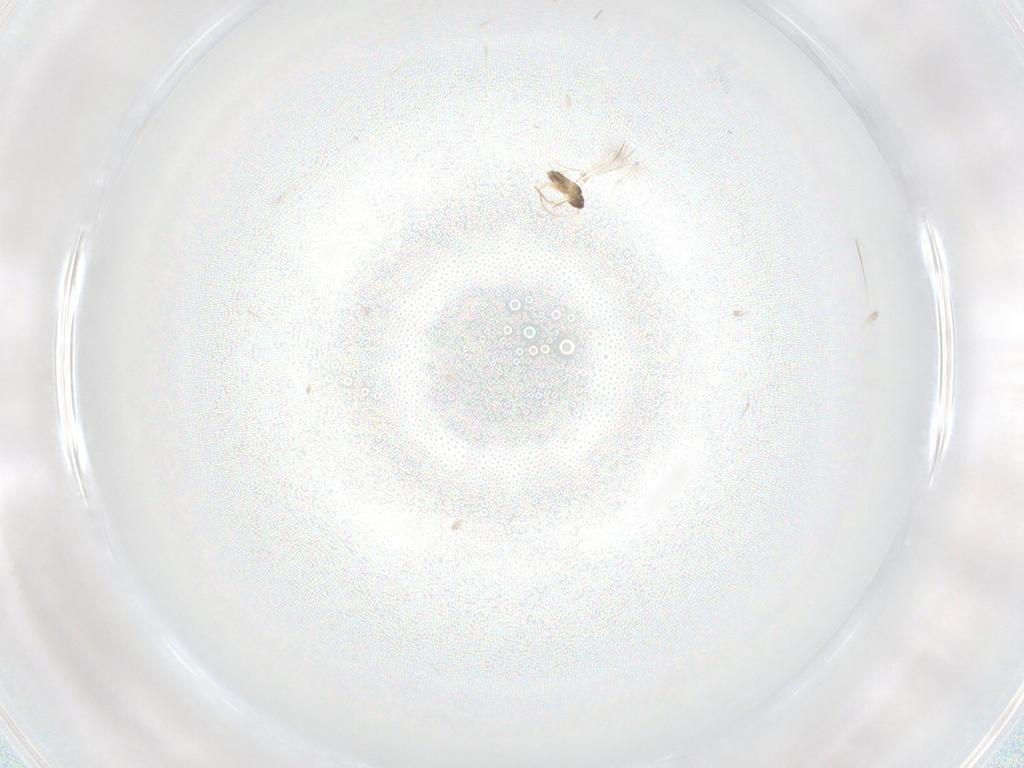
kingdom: Animalia
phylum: Arthropoda
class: Insecta
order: Hymenoptera
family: Mymaridae
